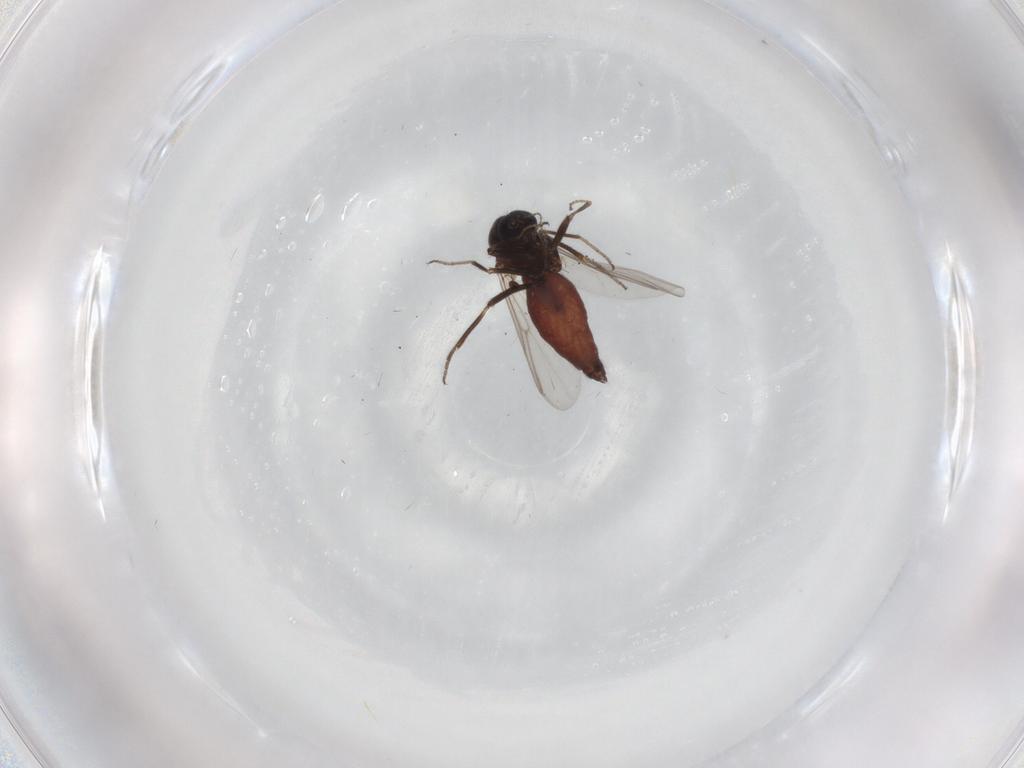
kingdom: Animalia
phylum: Arthropoda
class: Insecta
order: Diptera
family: Ceratopogonidae
